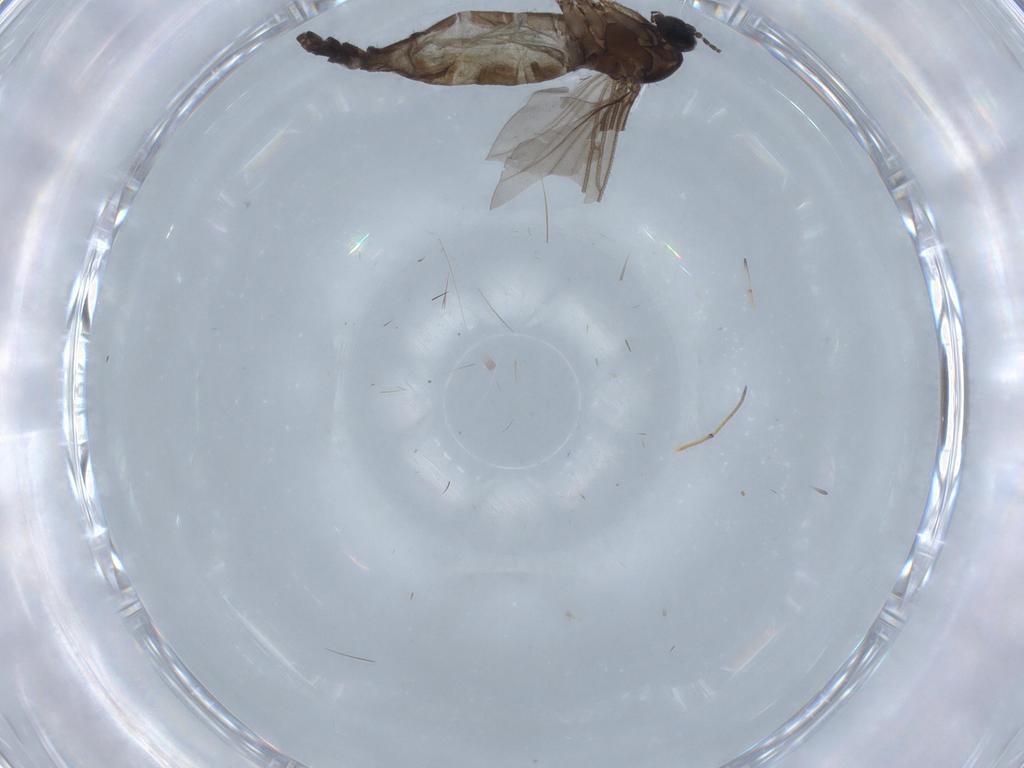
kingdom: Animalia
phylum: Arthropoda
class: Insecta
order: Diptera
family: Sciaridae
